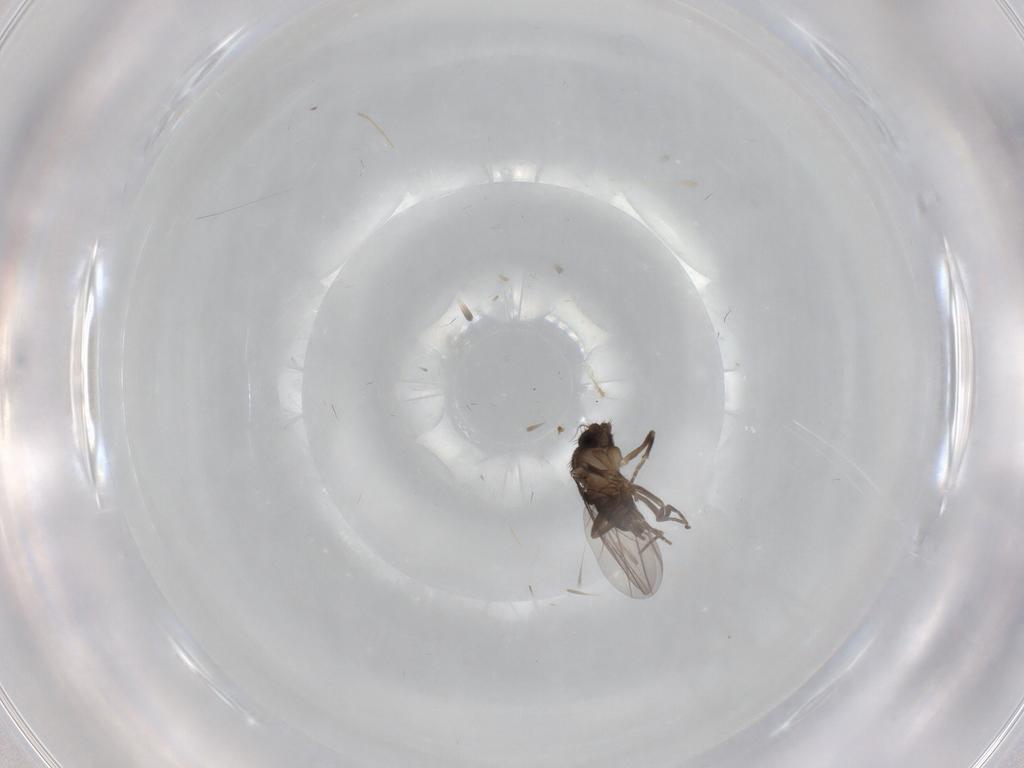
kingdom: Animalia
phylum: Arthropoda
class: Insecta
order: Diptera
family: Phoridae
